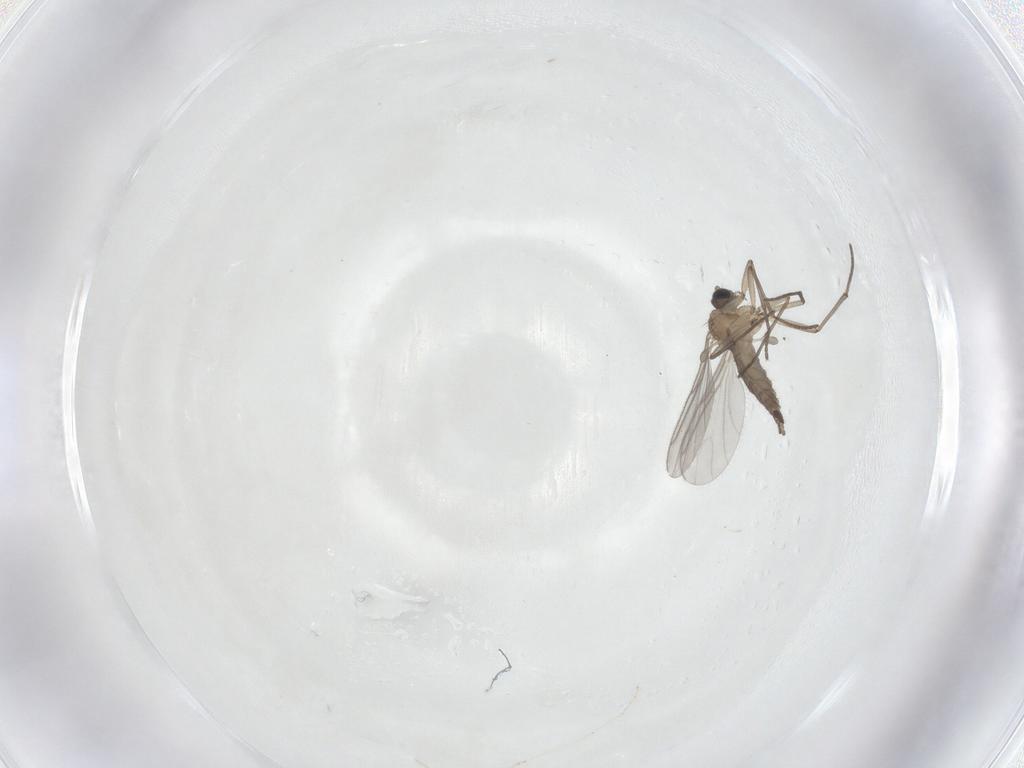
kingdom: Animalia
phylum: Arthropoda
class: Insecta
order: Diptera
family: Sciaridae
